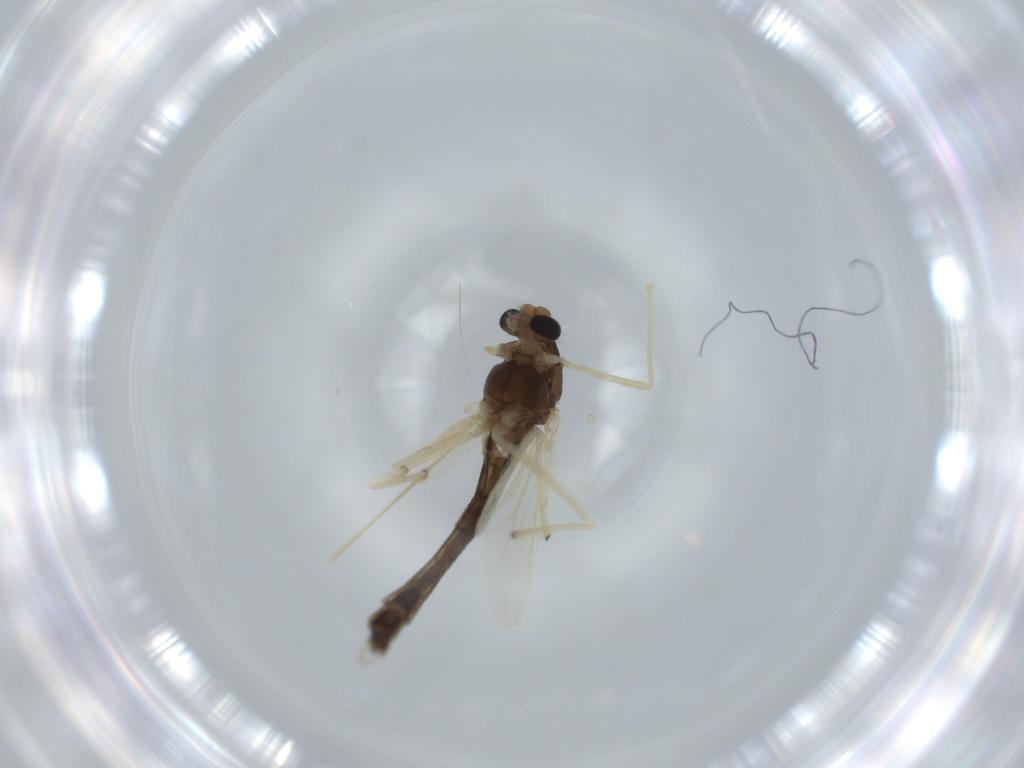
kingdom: Animalia
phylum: Arthropoda
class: Insecta
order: Diptera
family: Chironomidae
